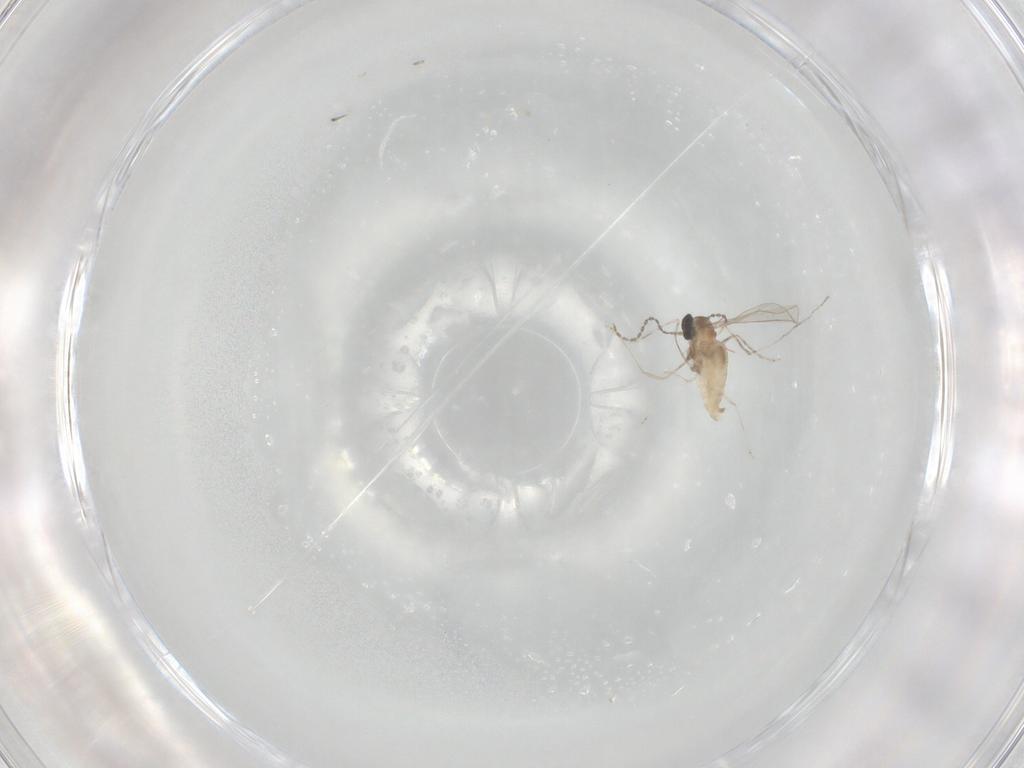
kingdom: Animalia
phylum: Arthropoda
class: Insecta
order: Diptera
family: Cecidomyiidae
